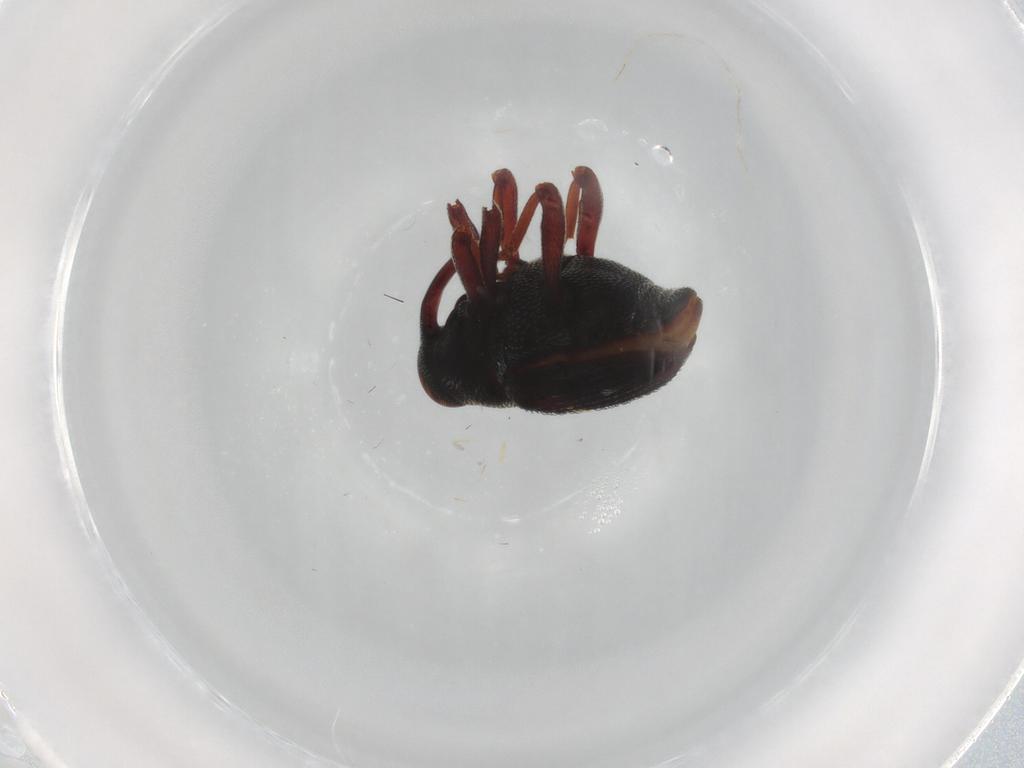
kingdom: Animalia
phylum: Arthropoda
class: Insecta
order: Coleoptera
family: Curculionidae
